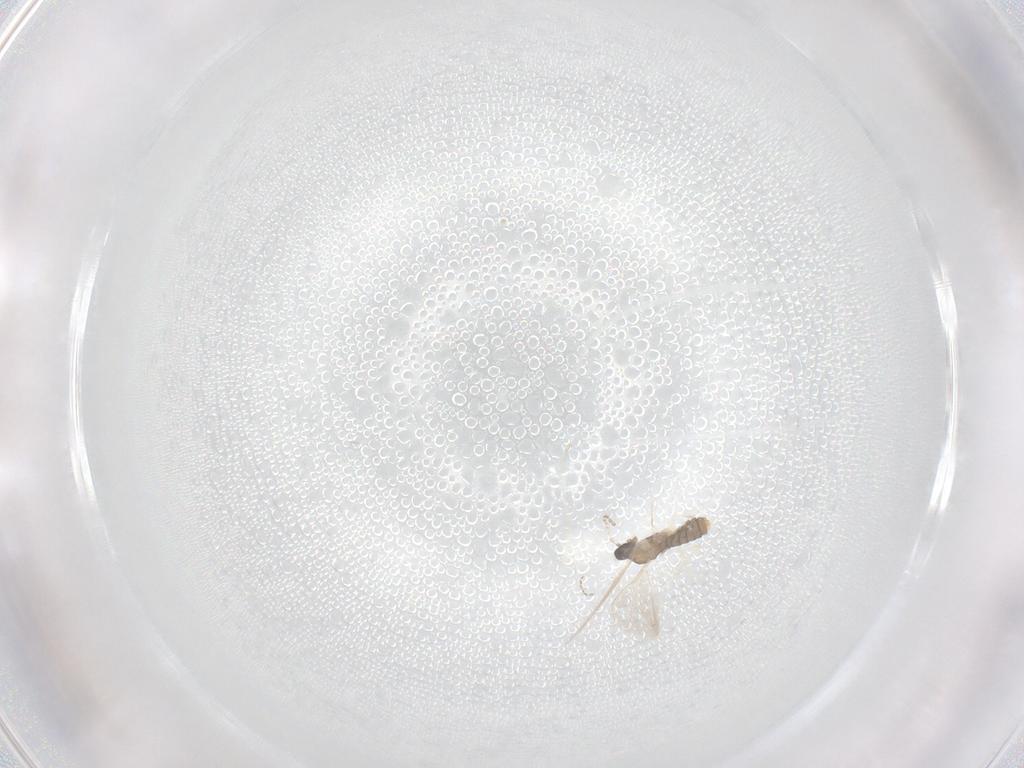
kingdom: Animalia
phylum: Arthropoda
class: Insecta
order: Diptera
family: Cecidomyiidae
